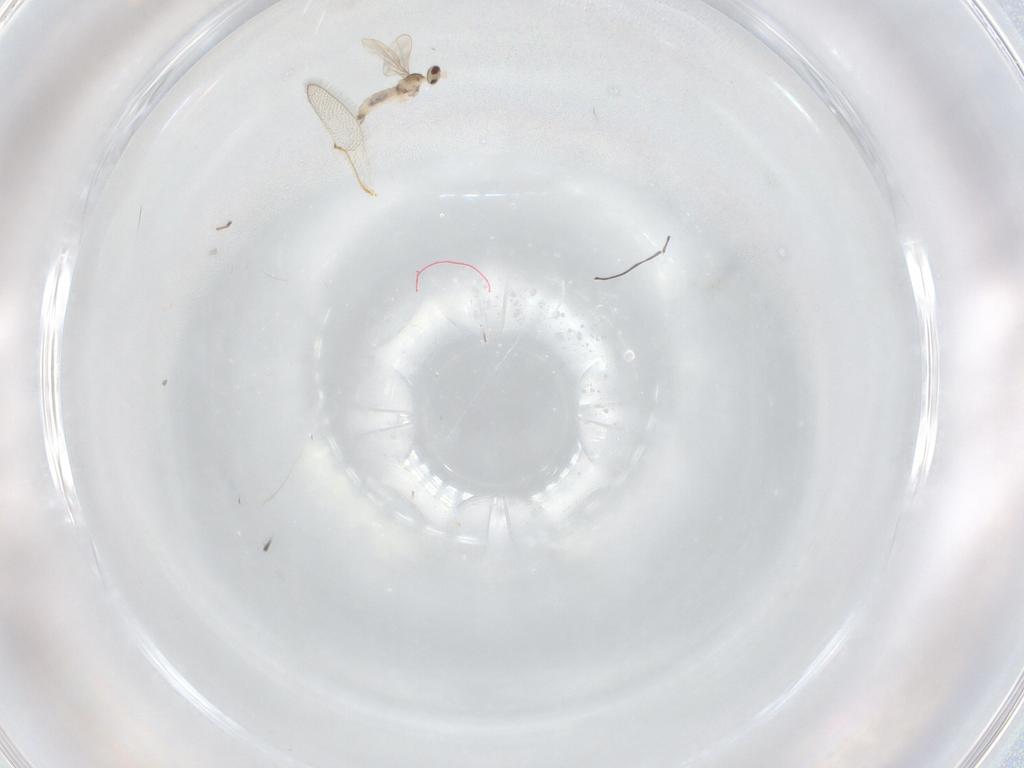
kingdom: Animalia
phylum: Arthropoda
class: Insecta
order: Diptera
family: Cecidomyiidae
